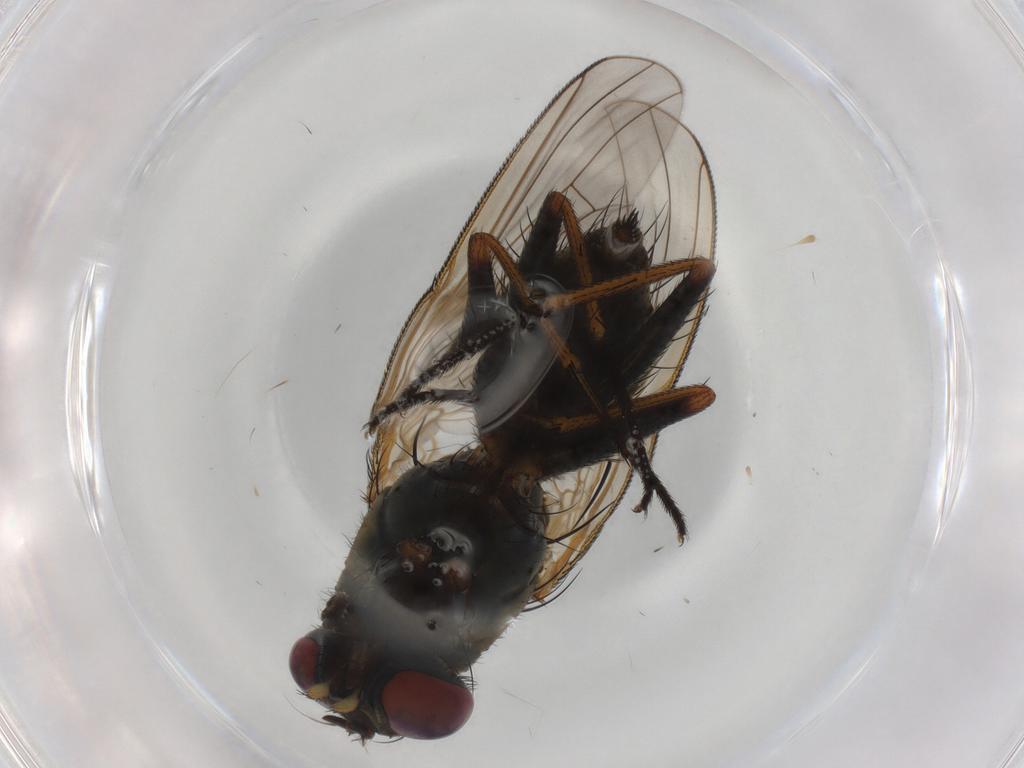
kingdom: Animalia
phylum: Arthropoda
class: Insecta
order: Diptera
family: Muscidae
